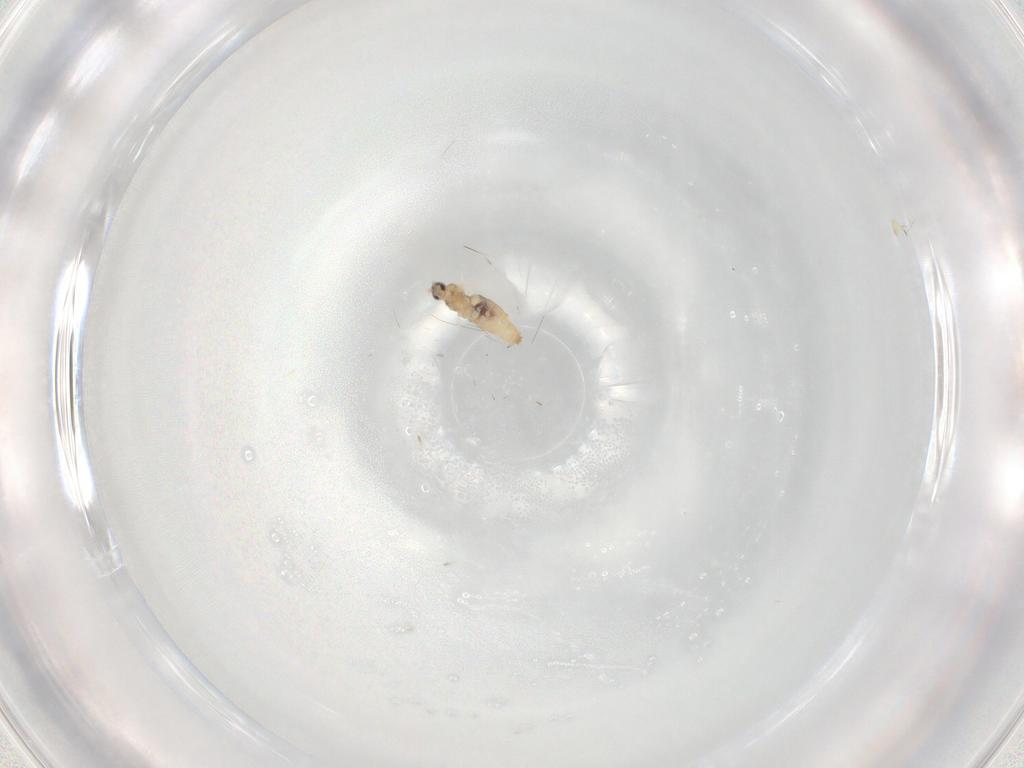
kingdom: Animalia
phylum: Arthropoda
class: Insecta
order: Diptera
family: Cecidomyiidae
